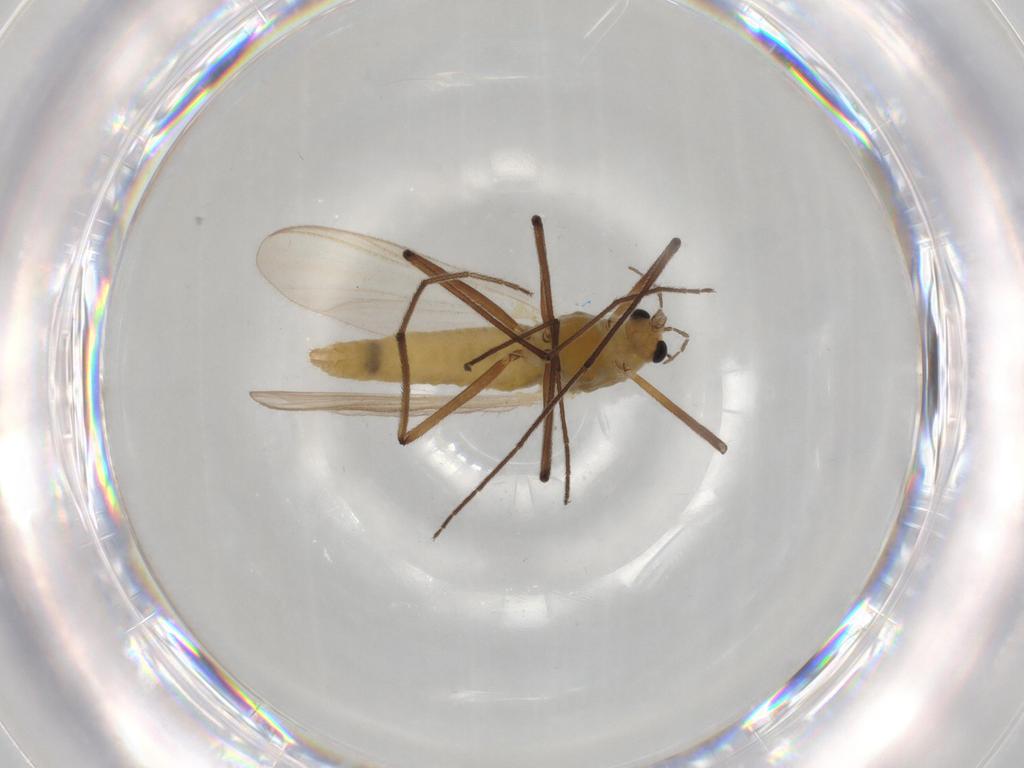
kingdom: Animalia
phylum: Arthropoda
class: Insecta
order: Diptera
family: Chironomidae
